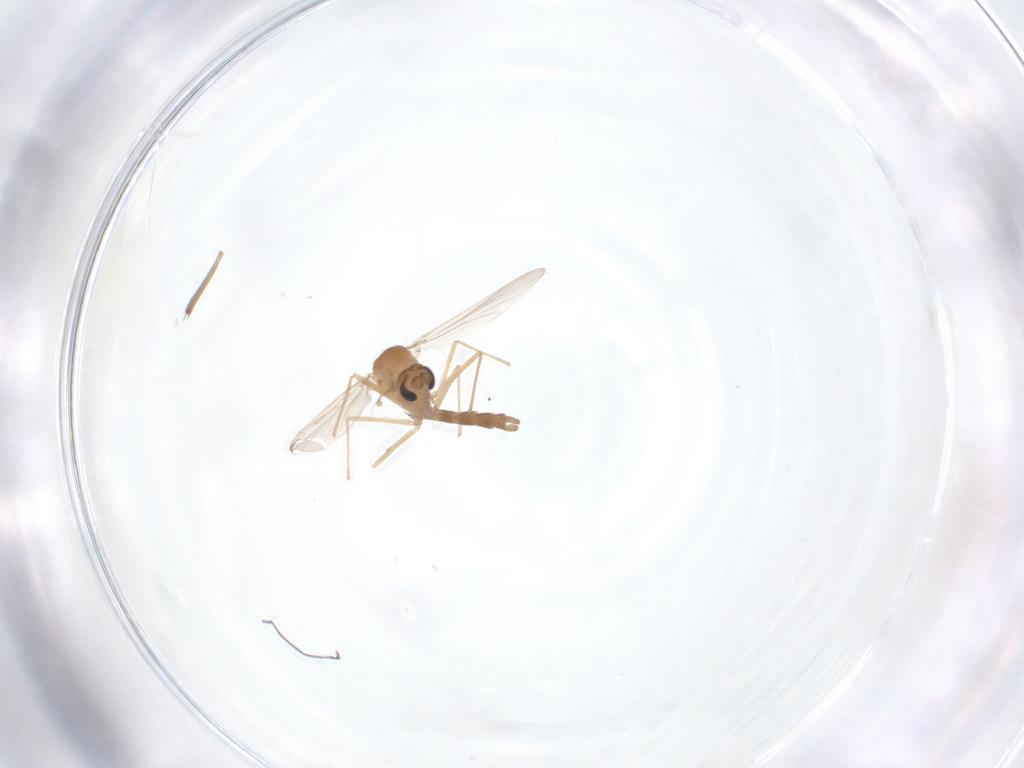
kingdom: Animalia
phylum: Arthropoda
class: Insecta
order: Diptera
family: Chironomidae
